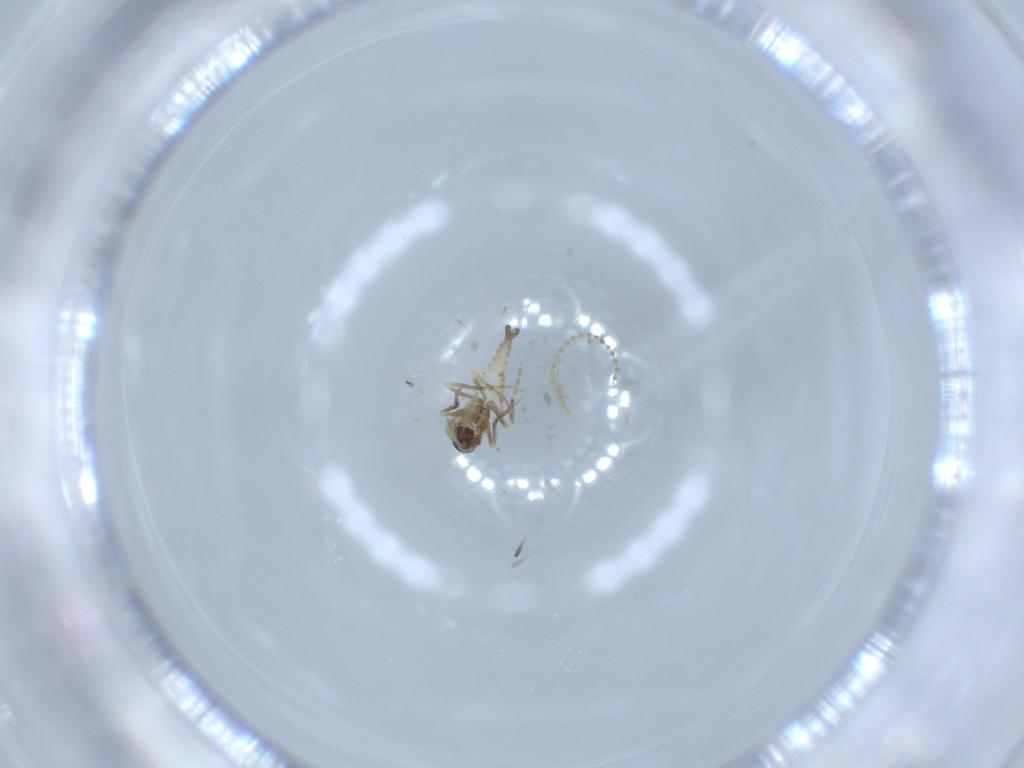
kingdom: Animalia
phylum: Arthropoda
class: Insecta
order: Diptera
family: Ceratopogonidae
